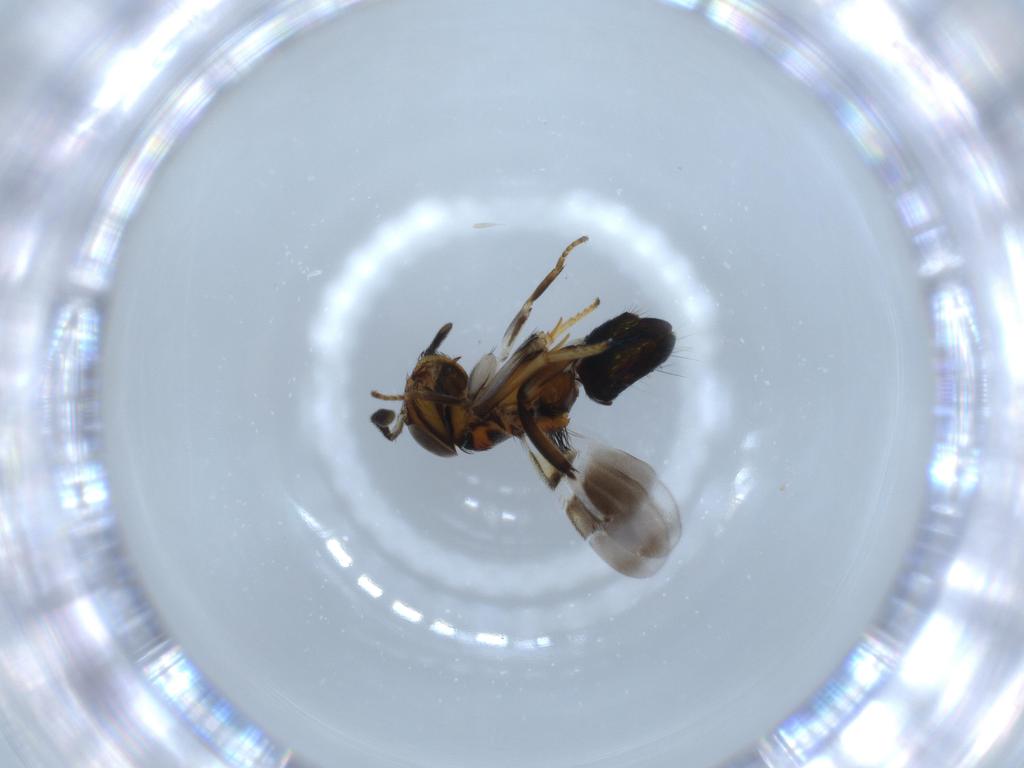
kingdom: Animalia
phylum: Arthropoda
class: Insecta
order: Hymenoptera
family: Encyrtidae
